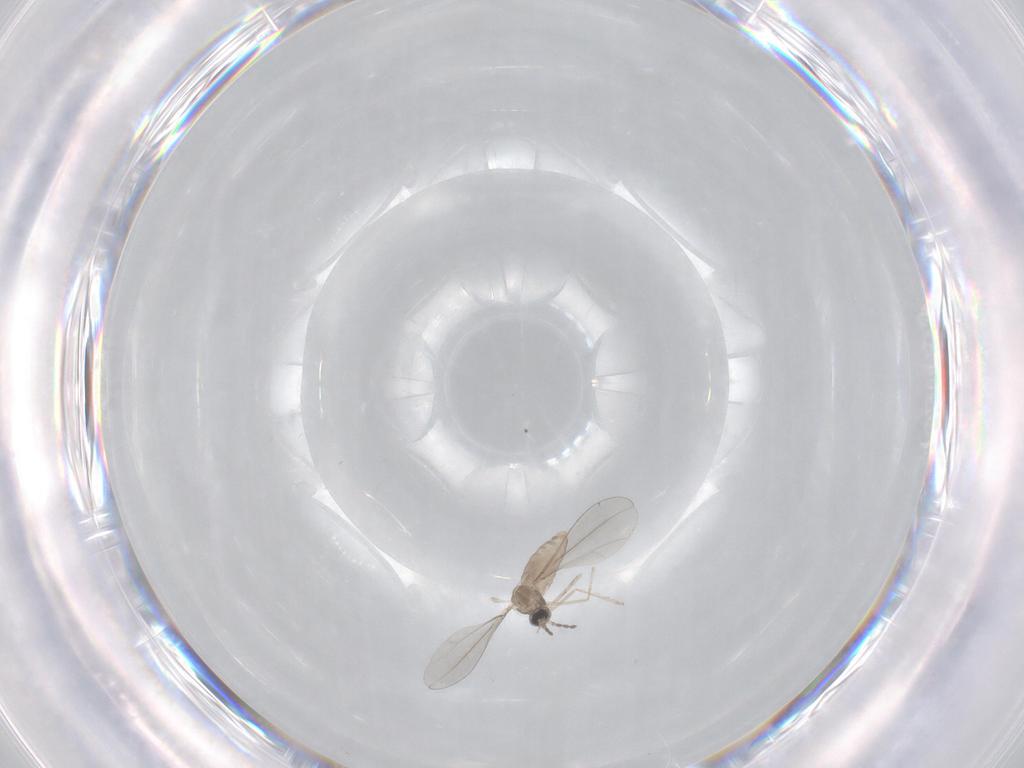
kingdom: Animalia
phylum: Arthropoda
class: Insecta
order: Diptera
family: Cecidomyiidae
